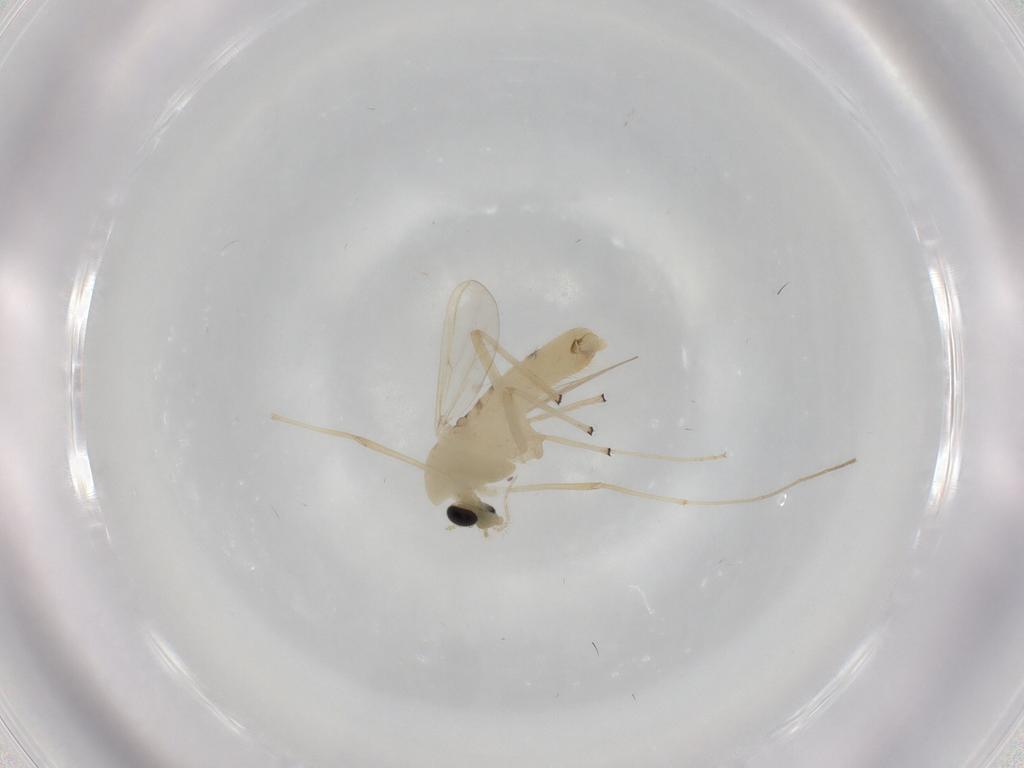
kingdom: Animalia
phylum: Arthropoda
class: Insecta
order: Diptera
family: Chironomidae
